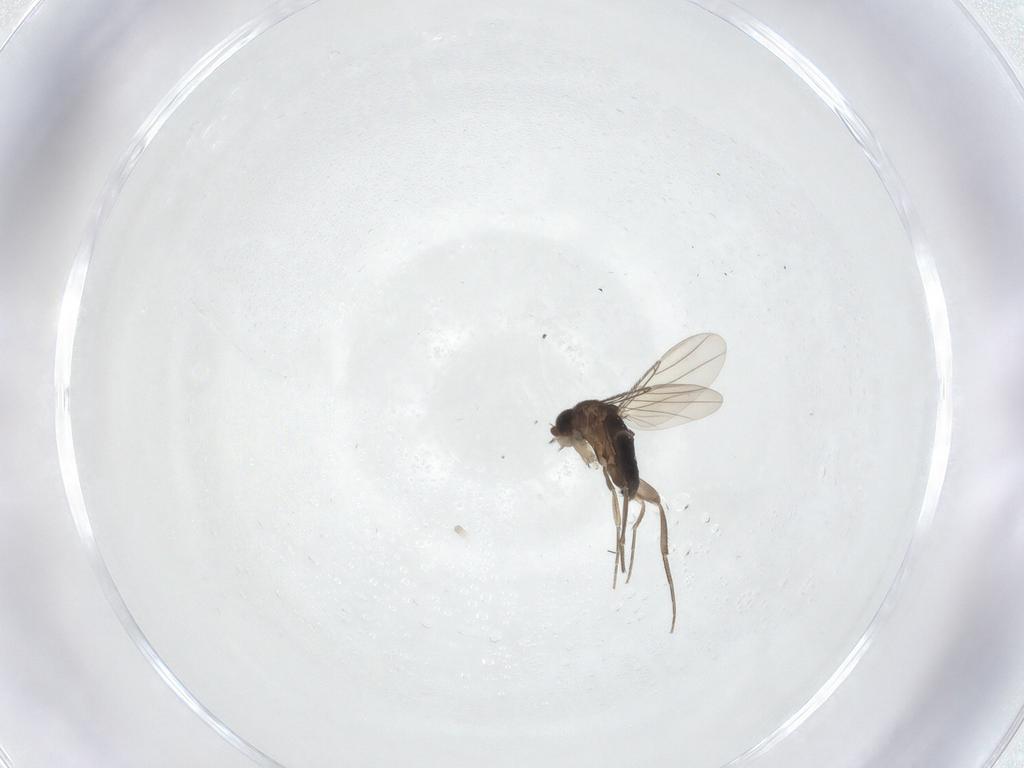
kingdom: Animalia
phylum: Arthropoda
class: Insecta
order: Diptera
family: Phoridae
